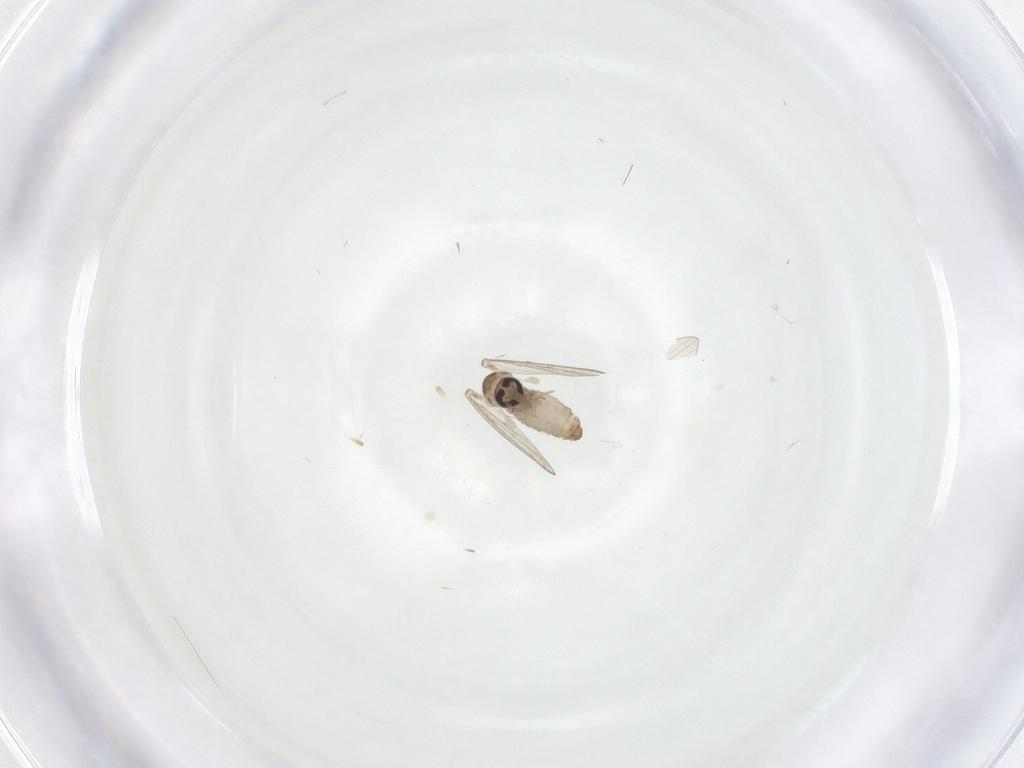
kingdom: Animalia
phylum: Arthropoda
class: Insecta
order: Diptera
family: Psychodidae
